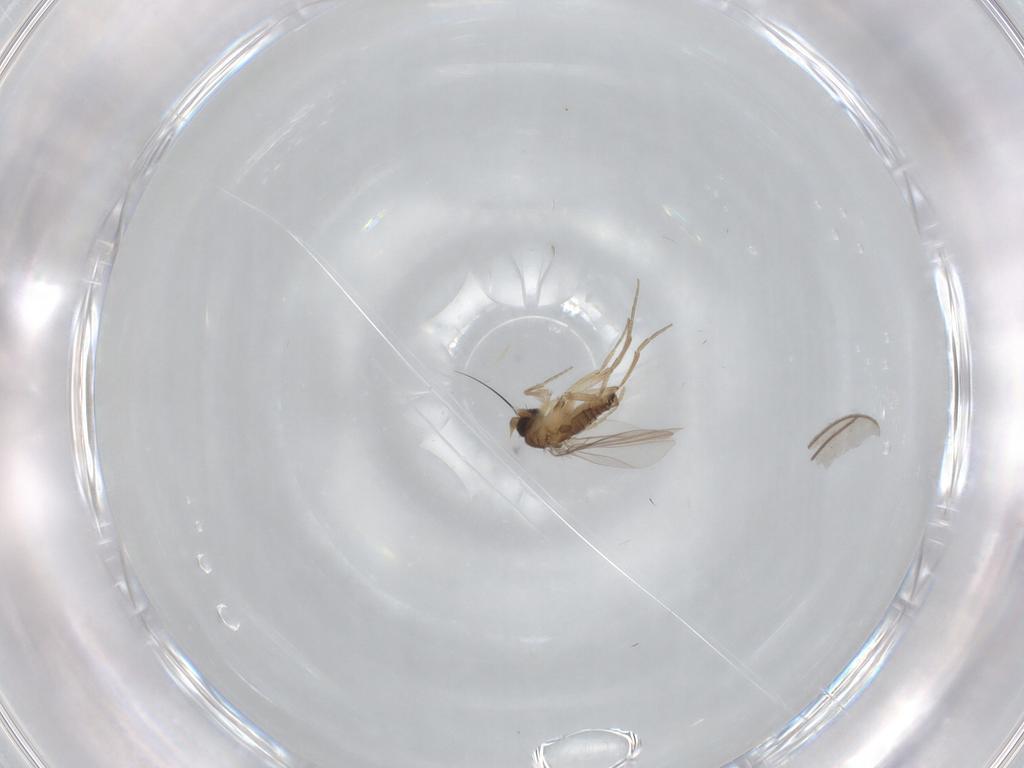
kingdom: Animalia
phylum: Arthropoda
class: Insecta
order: Diptera
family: Phoridae
